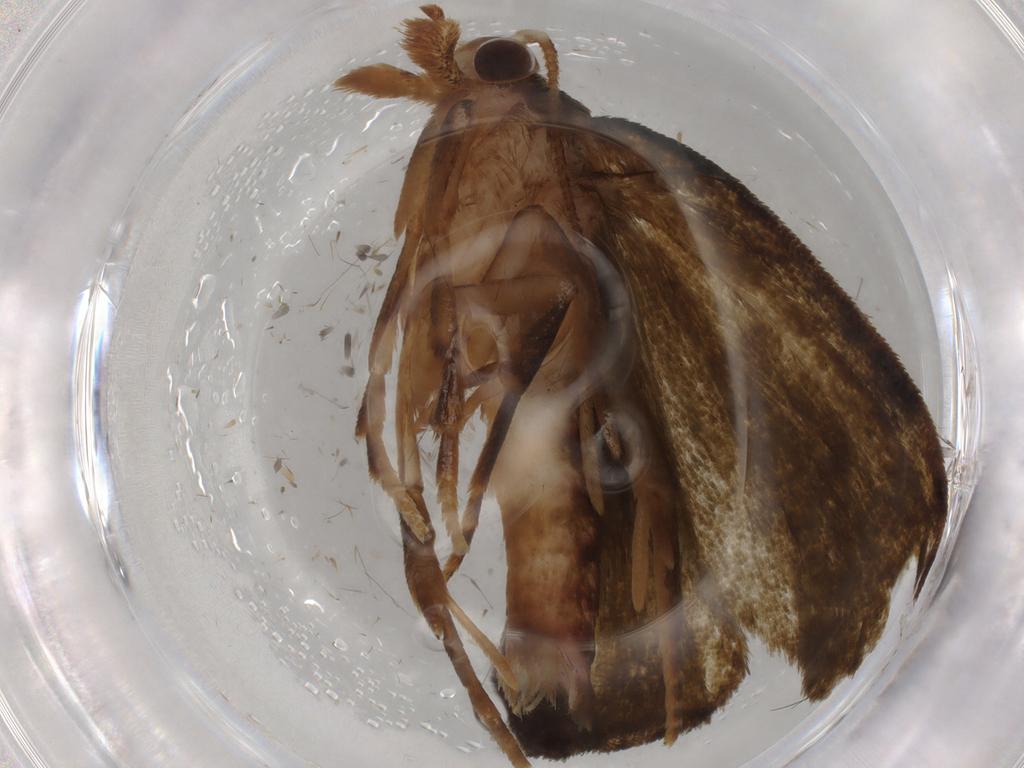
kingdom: Animalia
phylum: Arthropoda
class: Insecta
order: Lepidoptera
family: Geometridae
